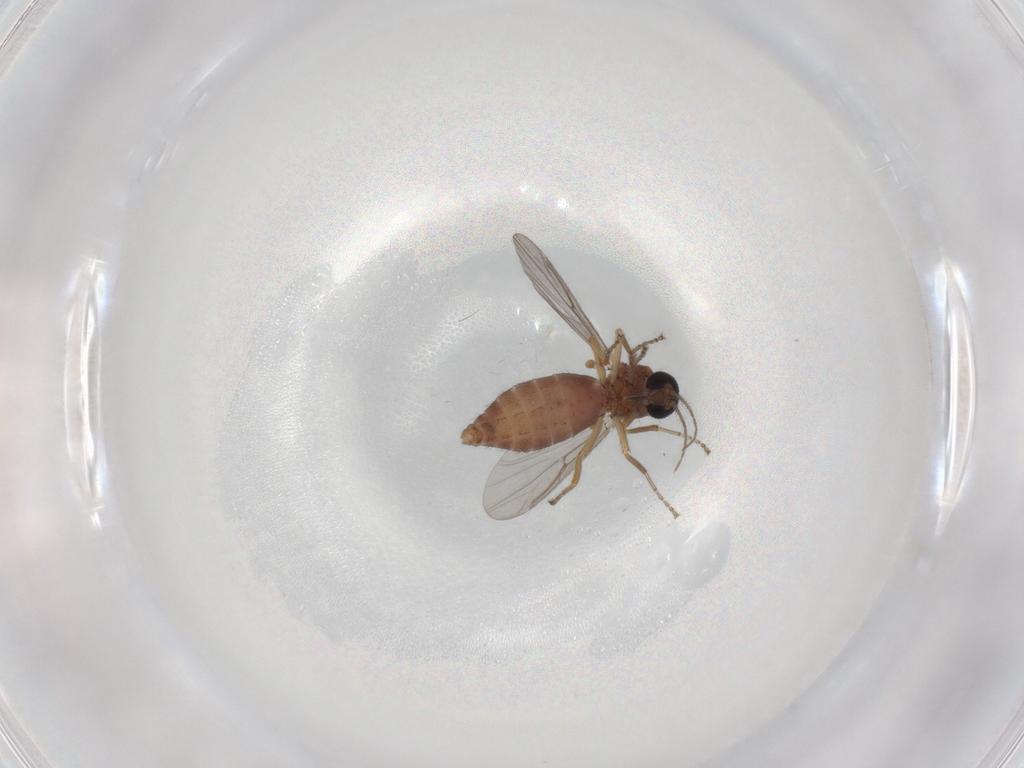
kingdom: Animalia
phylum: Arthropoda
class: Insecta
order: Diptera
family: Ceratopogonidae
